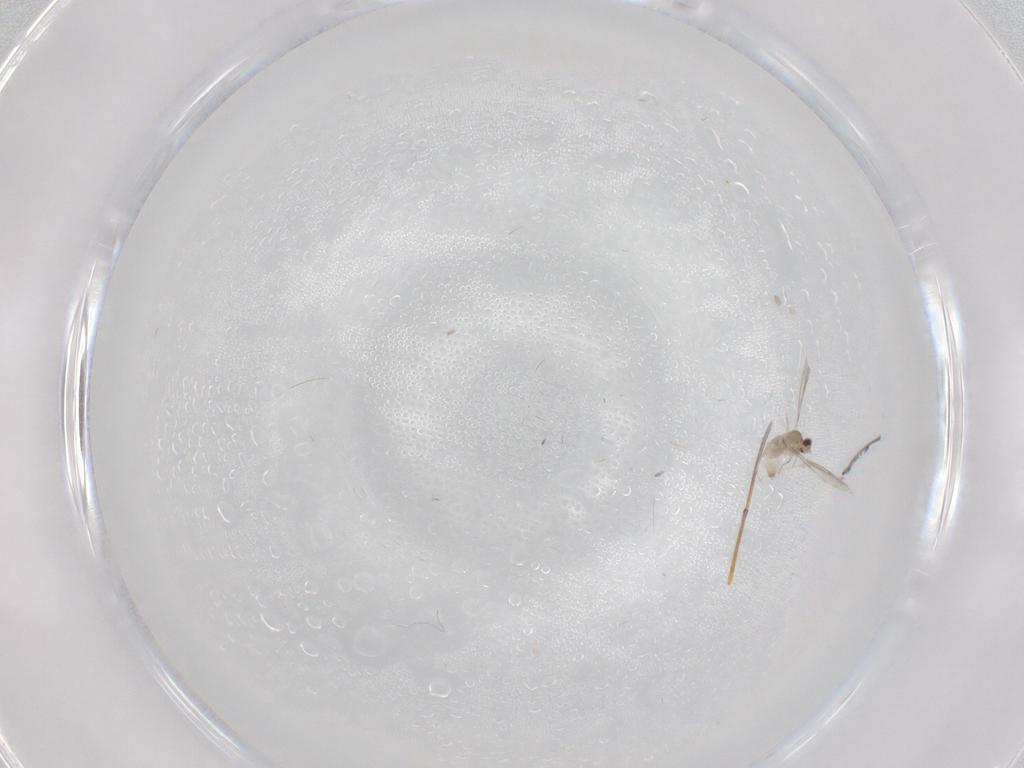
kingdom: Animalia
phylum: Arthropoda
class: Insecta
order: Diptera
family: Cecidomyiidae
